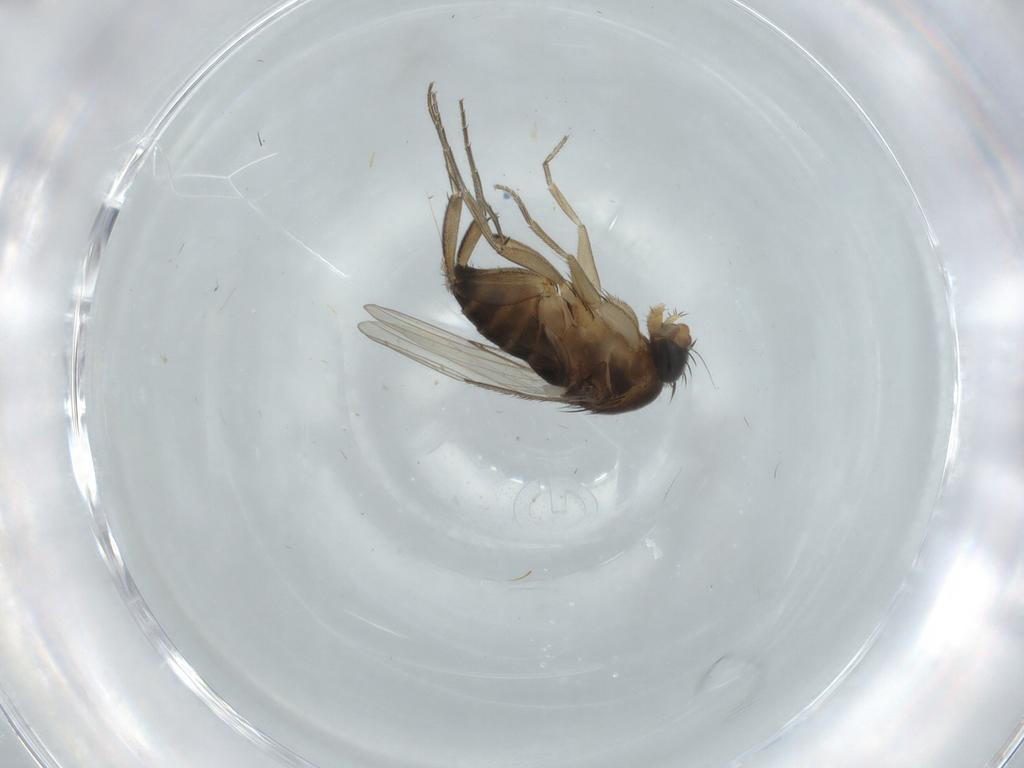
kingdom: Animalia
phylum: Arthropoda
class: Insecta
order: Diptera
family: Phoridae
